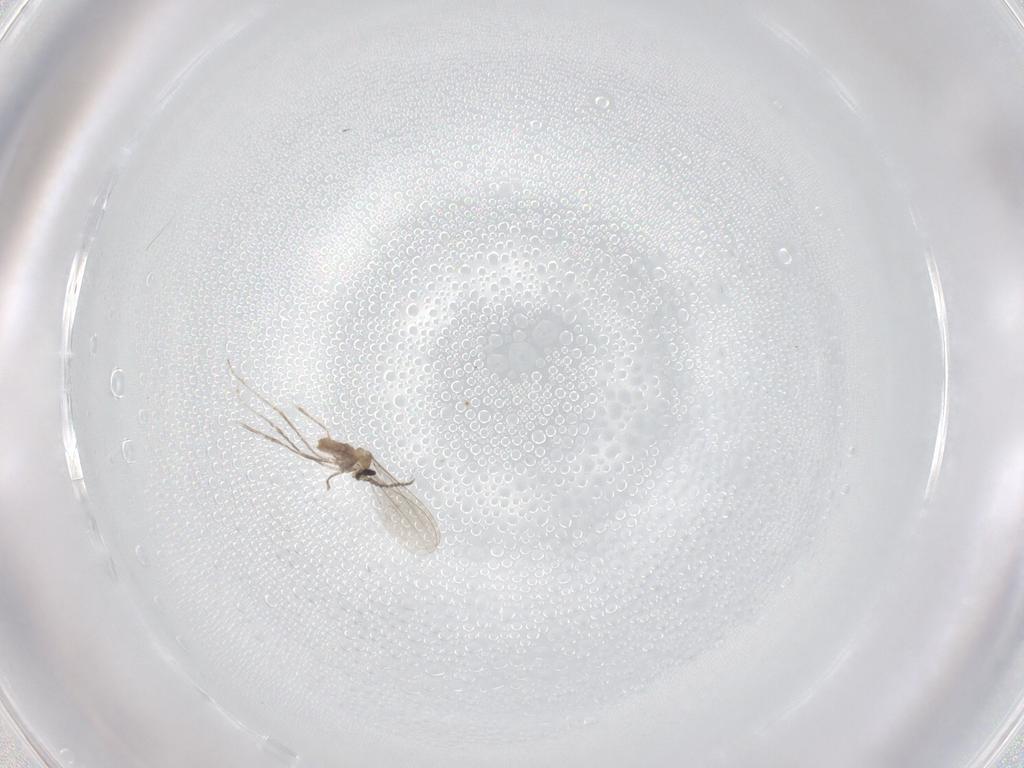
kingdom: Animalia
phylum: Arthropoda
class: Insecta
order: Diptera
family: Cecidomyiidae
